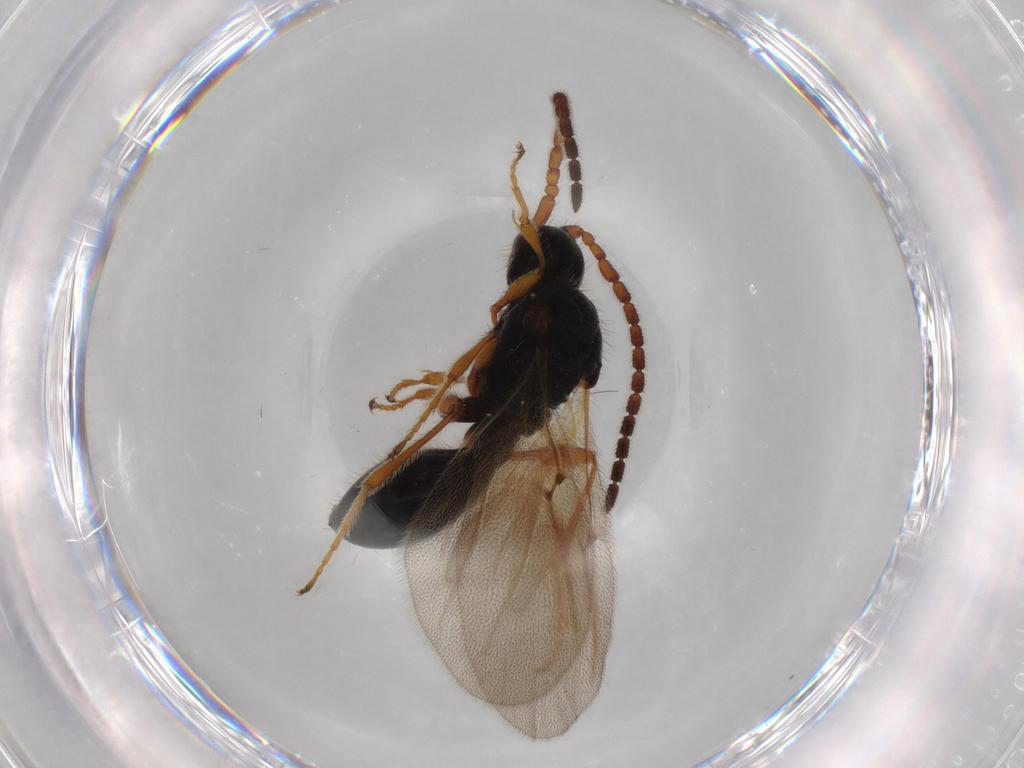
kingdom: Animalia
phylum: Arthropoda
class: Insecta
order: Hymenoptera
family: Diapriidae
